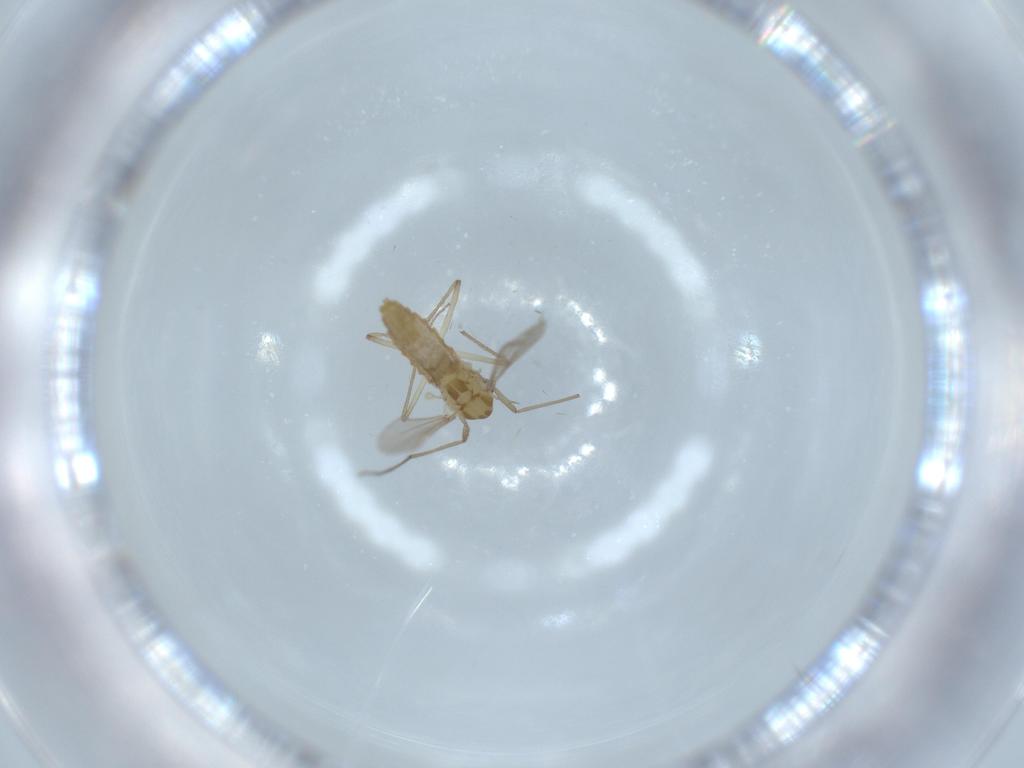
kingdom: Animalia
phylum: Arthropoda
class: Insecta
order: Diptera
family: Chironomidae
